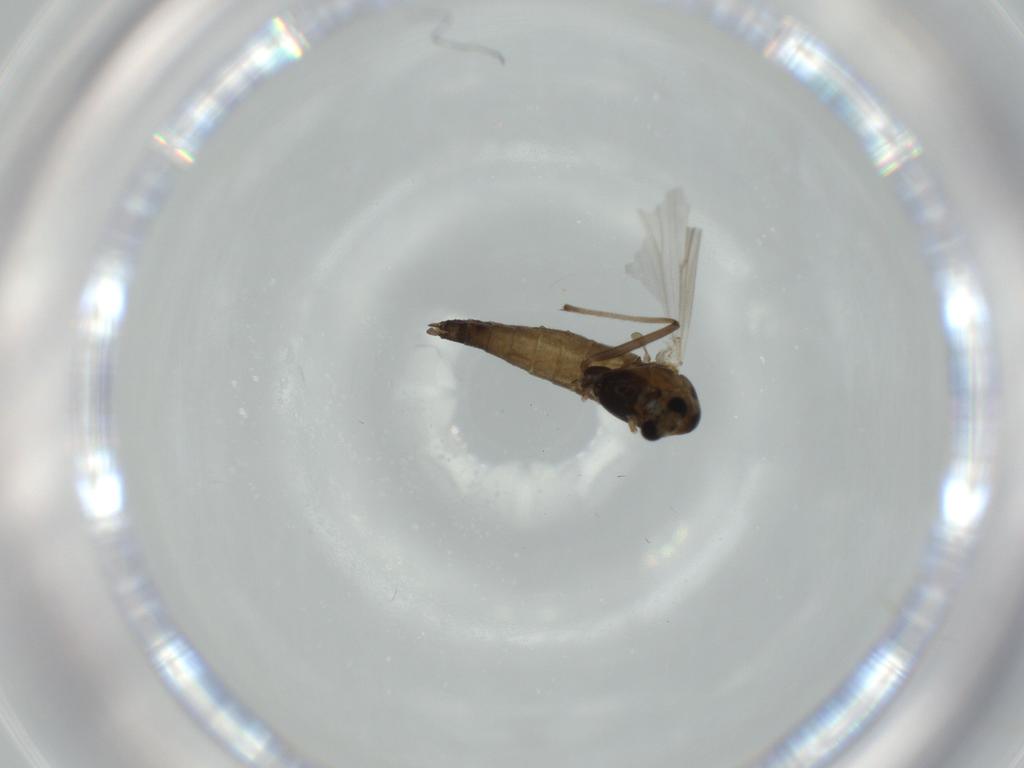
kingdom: Animalia
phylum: Arthropoda
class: Insecta
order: Diptera
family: Chironomidae
